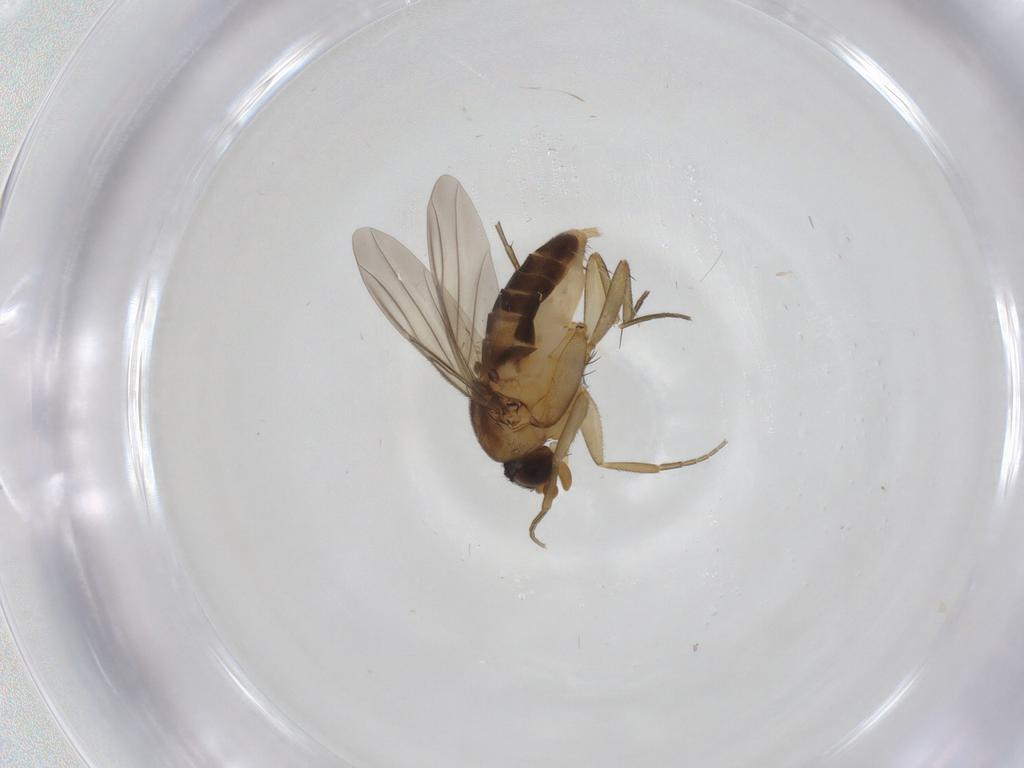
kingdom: Animalia
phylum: Arthropoda
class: Insecta
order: Diptera
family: Phoridae
